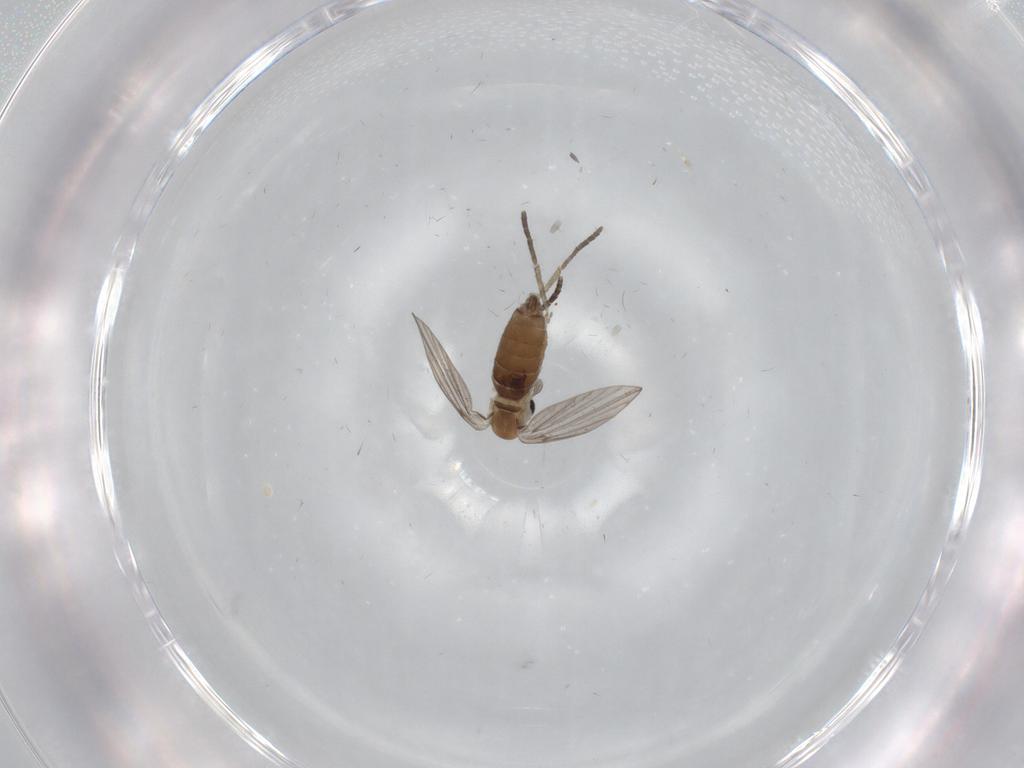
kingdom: Animalia
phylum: Arthropoda
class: Insecta
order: Diptera
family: Psychodidae
